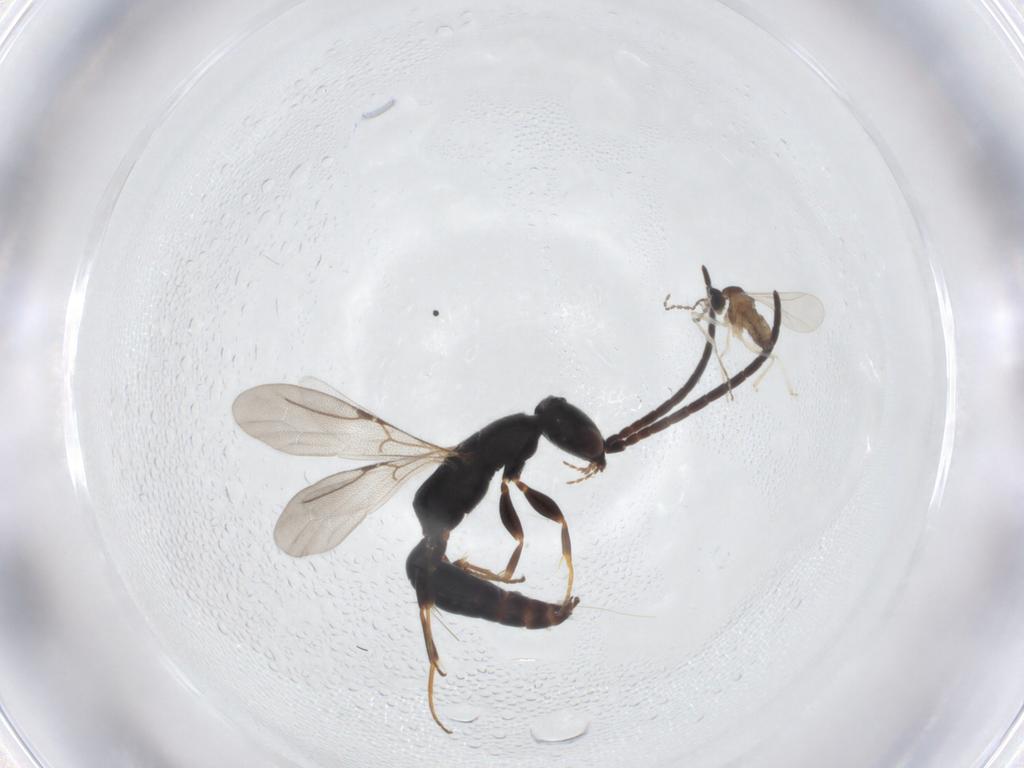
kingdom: Animalia
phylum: Arthropoda
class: Insecta
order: Diptera
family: Cecidomyiidae
